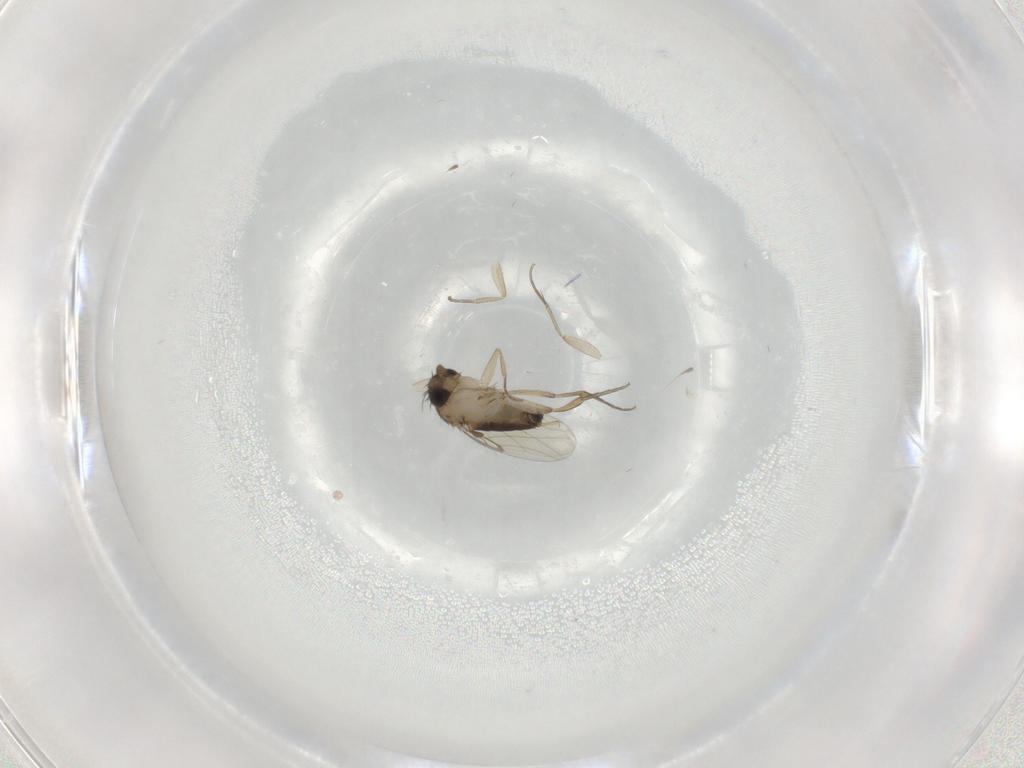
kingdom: Animalia
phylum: Arthropoda
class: Insecta
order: Diptera
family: Phoridae
